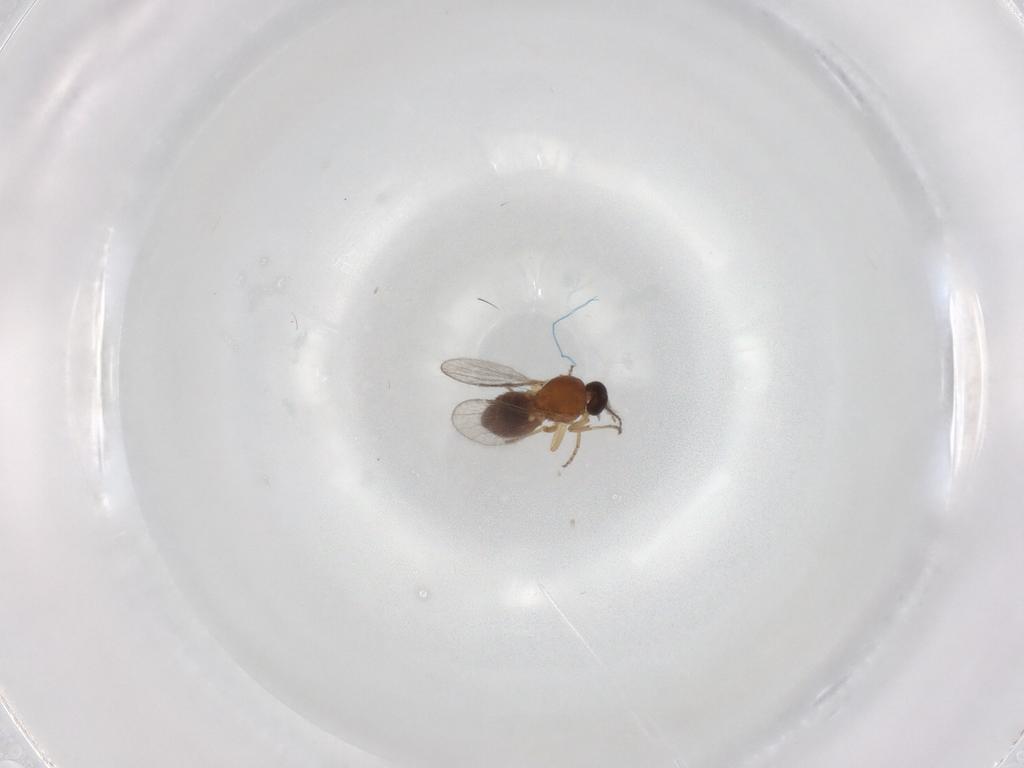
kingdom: Animalia
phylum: Arthropoda
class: Insecta
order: Diptera
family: Ceratopogonidae
